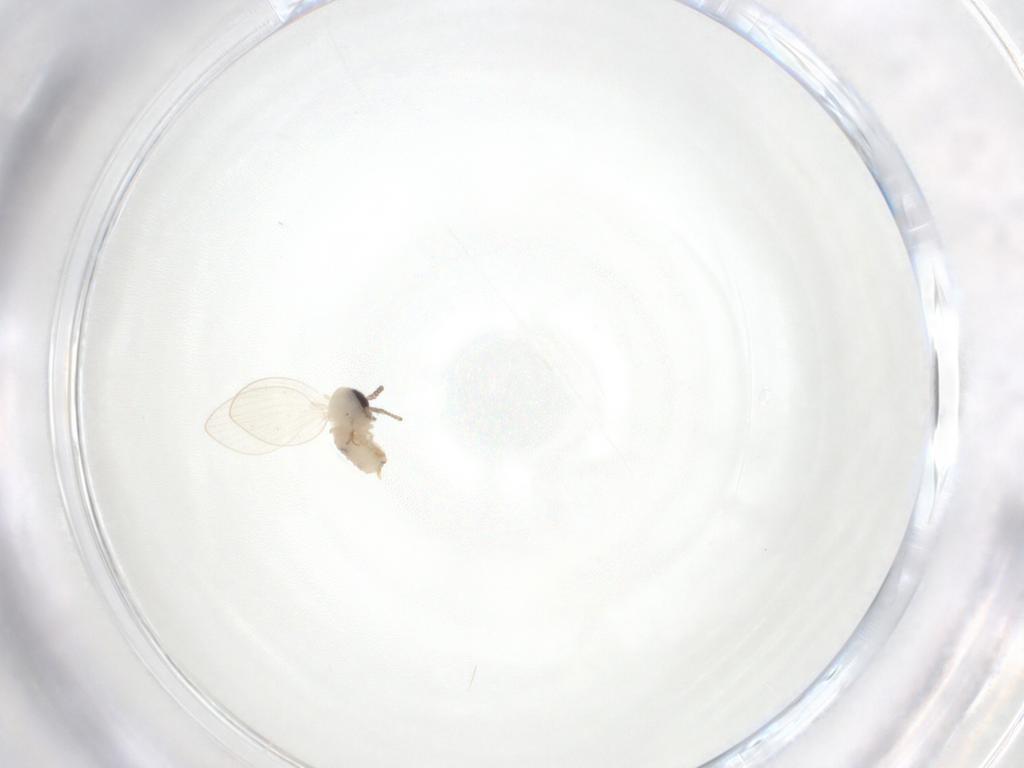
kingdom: Animalia
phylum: Arthropoda
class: Insecta
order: Diptera
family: Psychodidae
